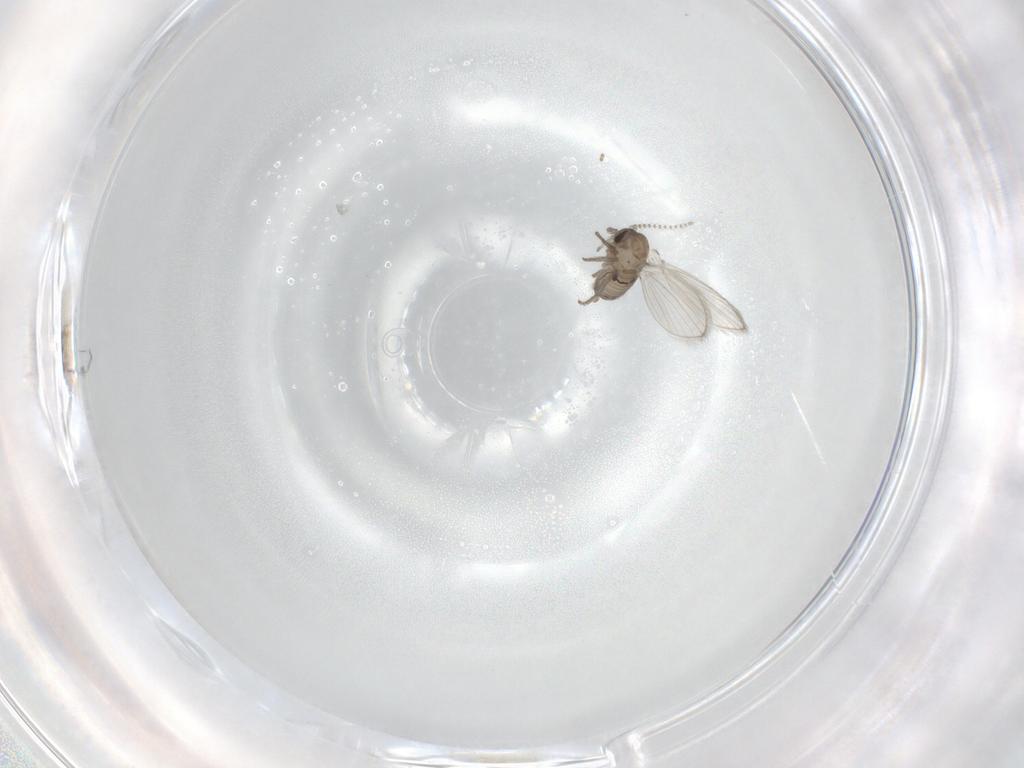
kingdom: Animalia
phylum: Arthropoda
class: Insecta
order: Diptera
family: Psychodidae
